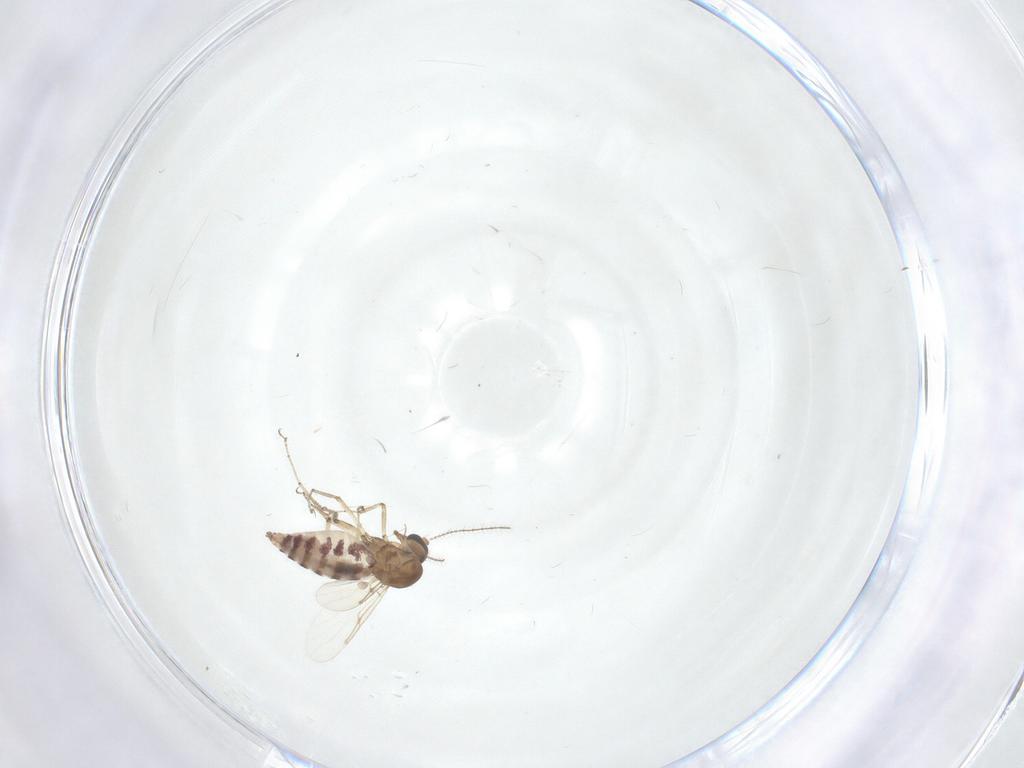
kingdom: Animalia
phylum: Arthropoda
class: Insecta
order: Diptera
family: Ceratopogonidae
